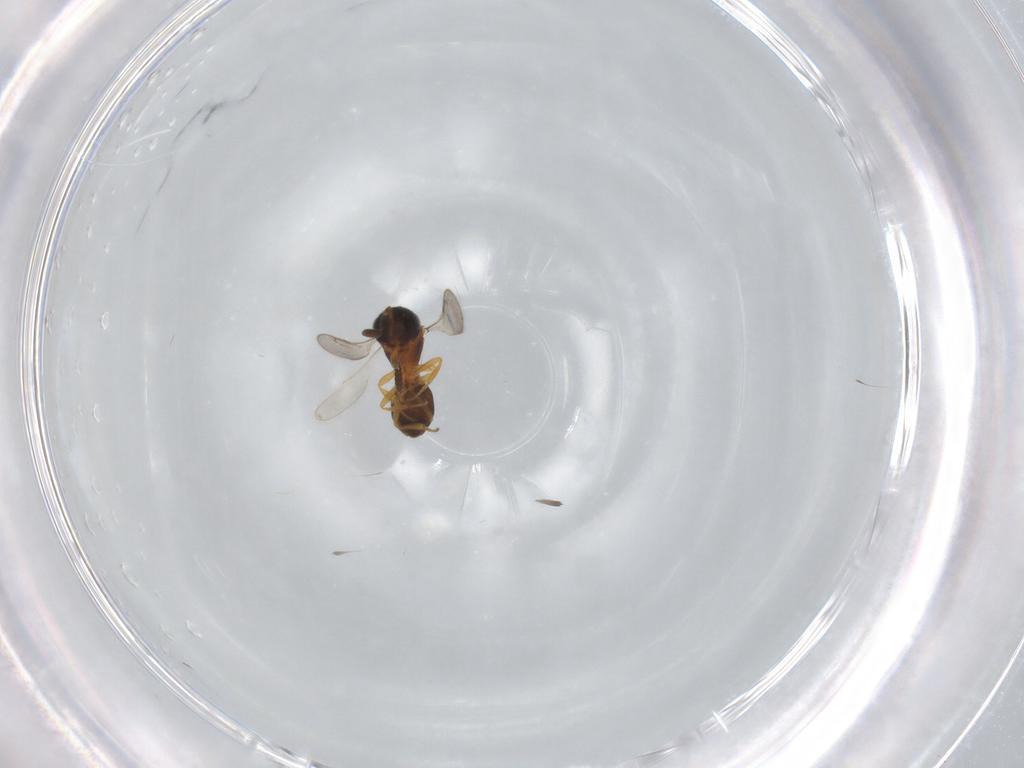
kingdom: Animalia
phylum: Arthropoda
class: Insecta
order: Hymenoptera
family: Scelionidae
